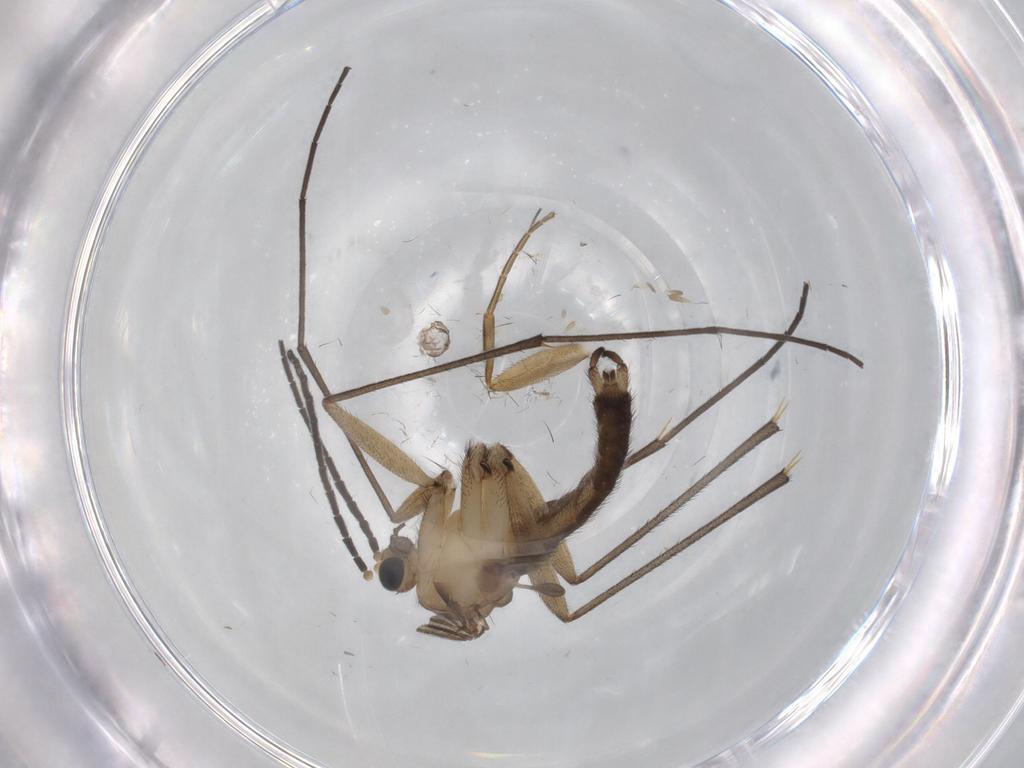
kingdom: Animalia
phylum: Arthropoda
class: Insecta
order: Diptera
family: Sciaridae
